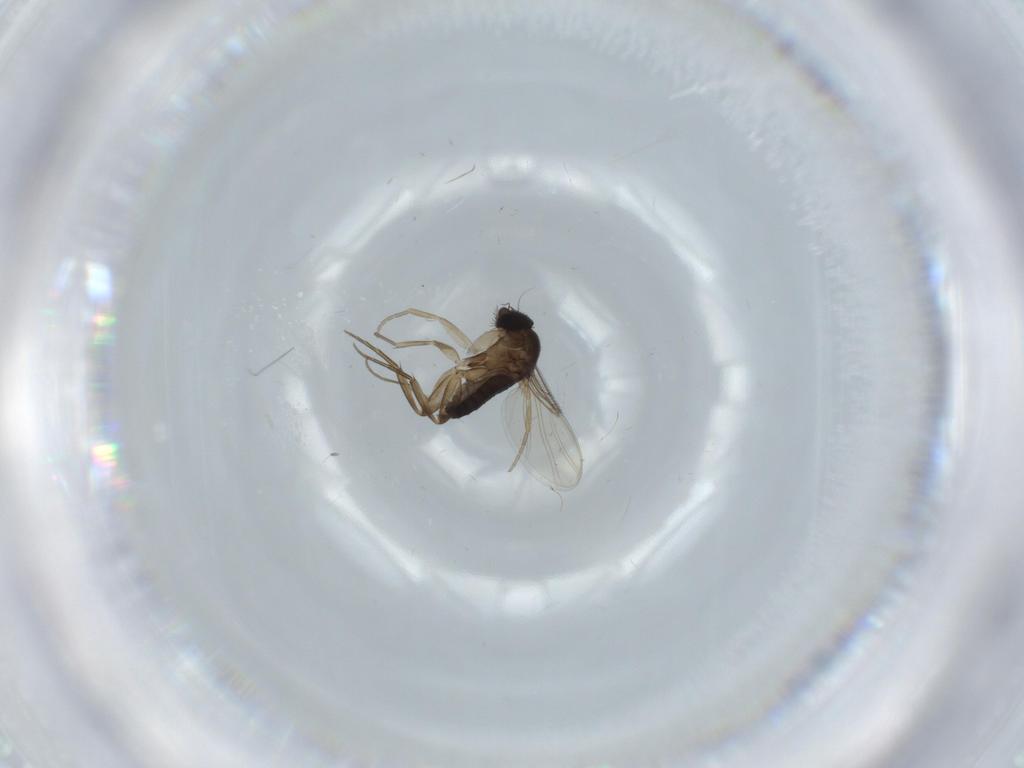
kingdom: Animalia
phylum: Arthropoda
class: Insecta
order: Diptera
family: Phoridae
